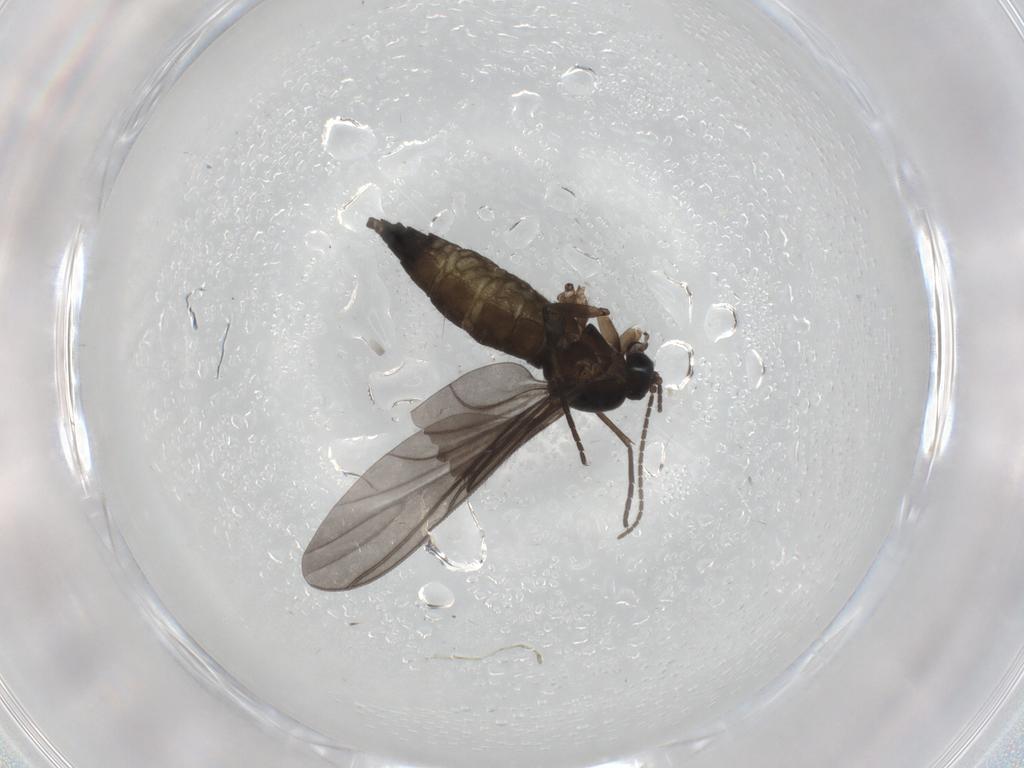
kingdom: Animalia
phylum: Arthropoda
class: Insecta
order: Diptera
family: Sciaridae
